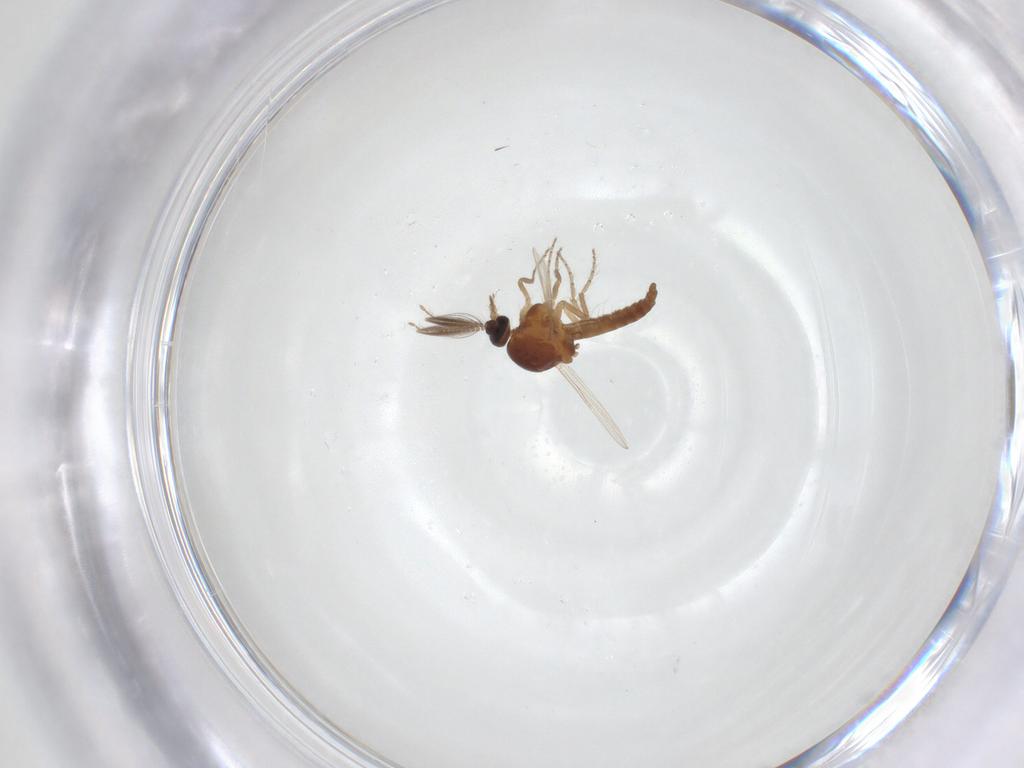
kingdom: Animalia
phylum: Arthropoda
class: Insecta
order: Diptera
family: Ceratopogonidae
